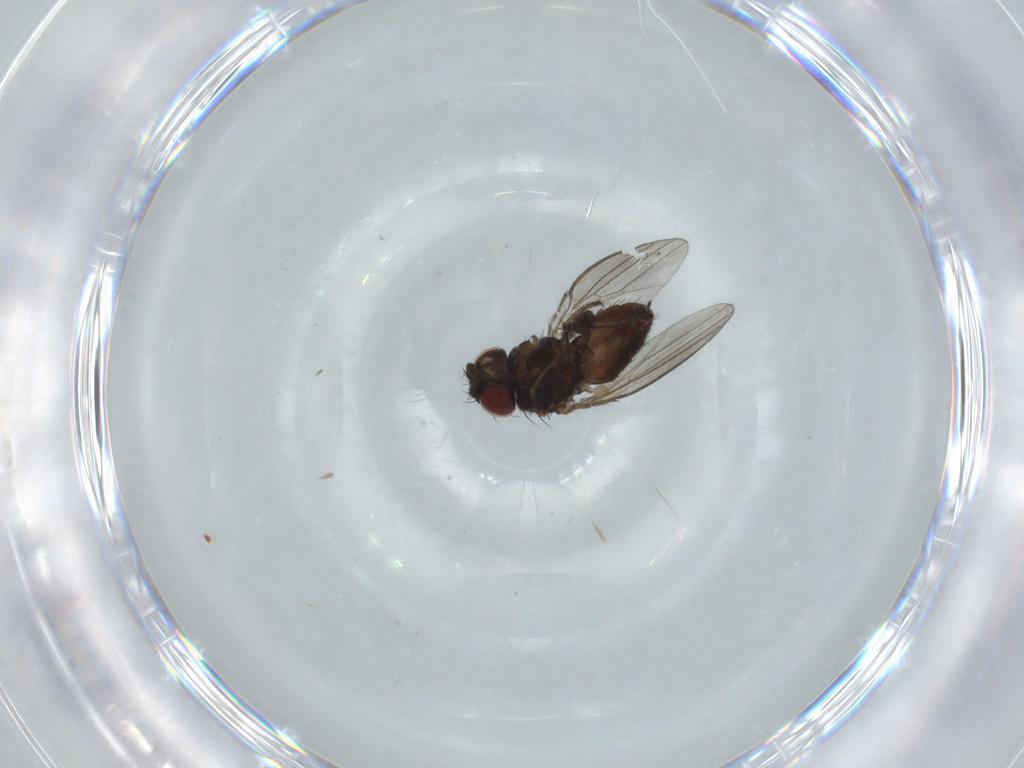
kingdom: Animalia
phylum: Arthropoda
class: Insecta
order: Diptera
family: Milichiidae
